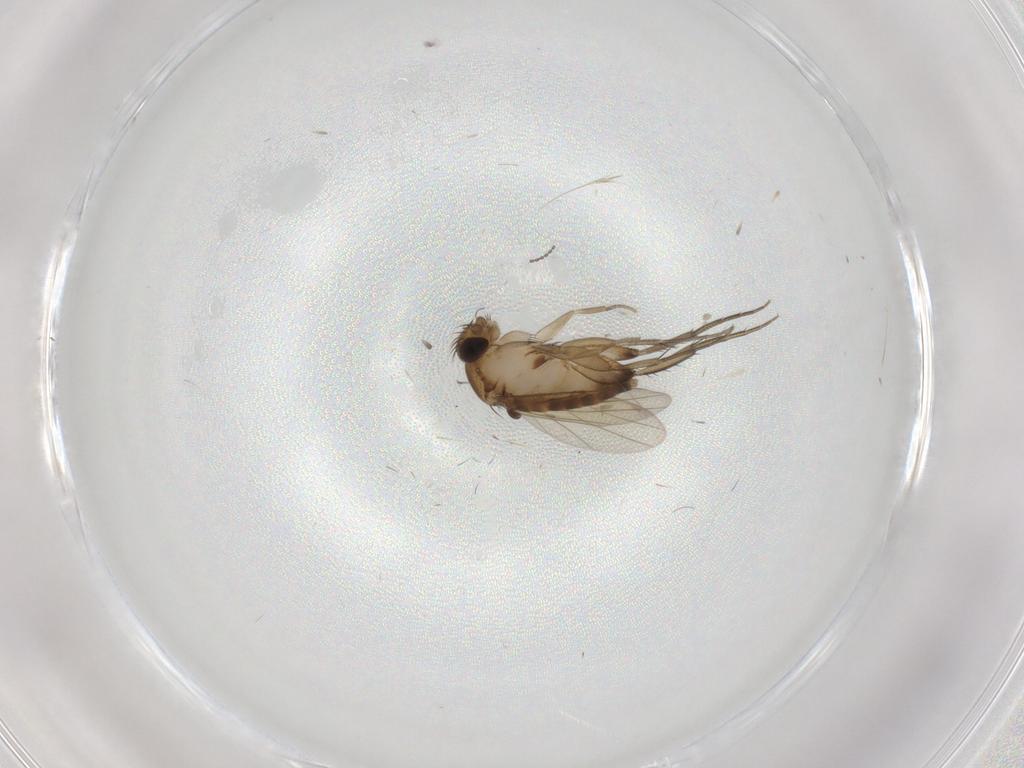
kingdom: Animalia
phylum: Arthropoda
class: Insecta
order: Diptera
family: Phoridae
